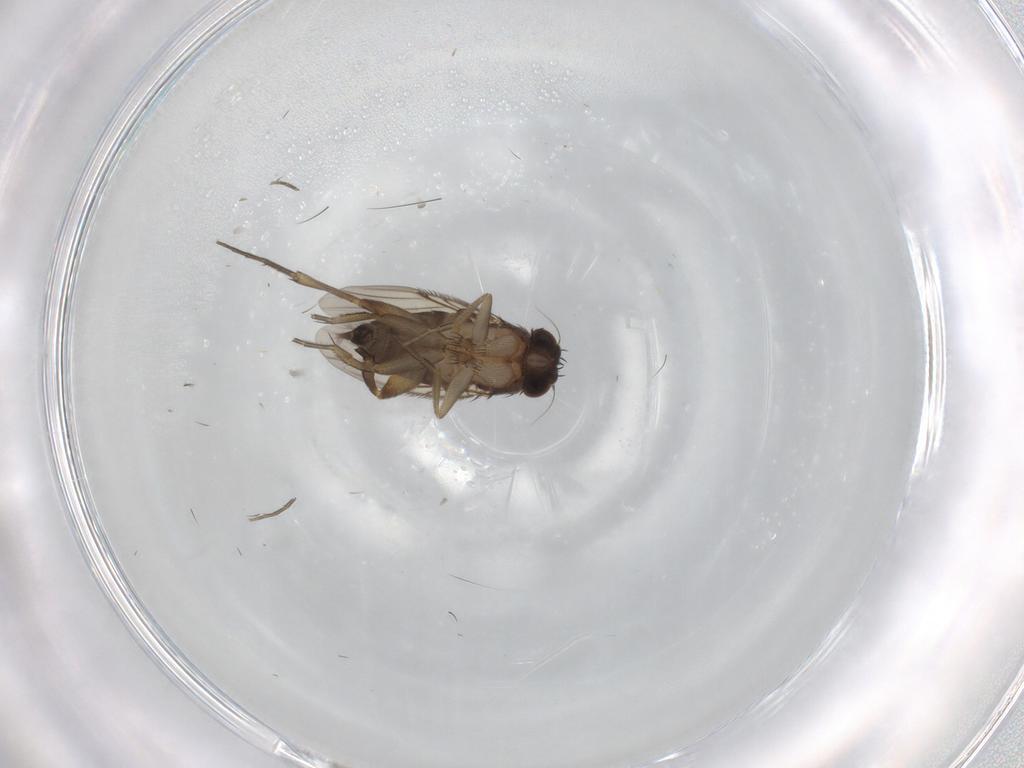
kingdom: Animalia
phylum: Arthropoda
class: Insecta
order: Diptera
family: Phoridae
